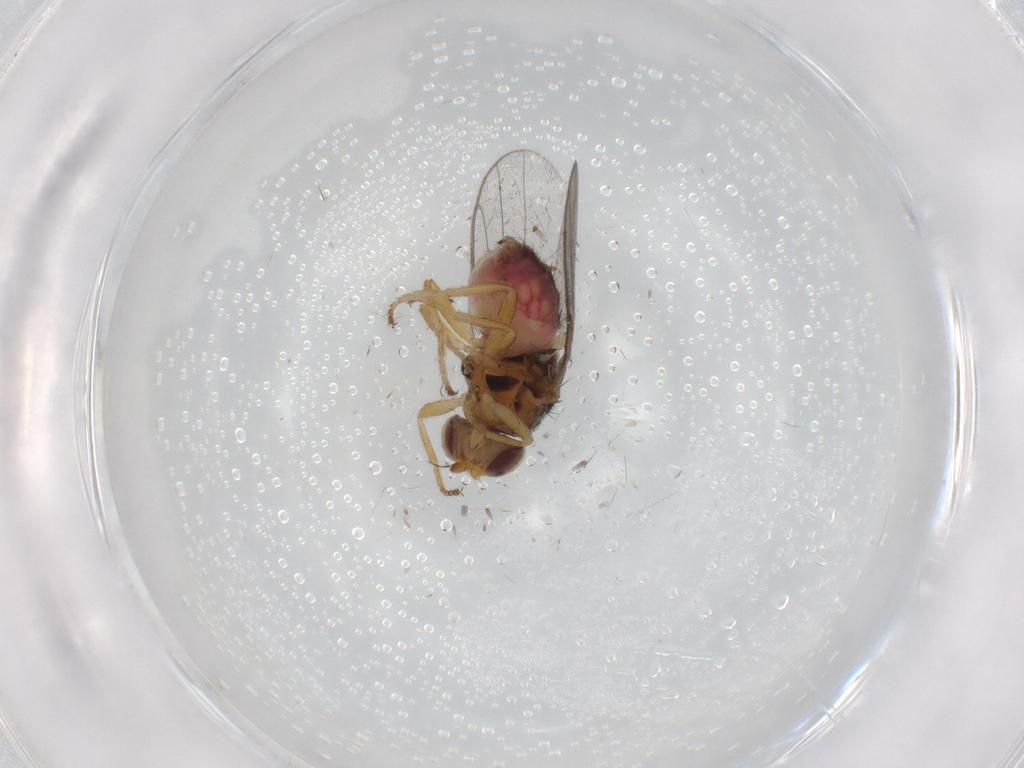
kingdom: Animalia
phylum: Arthropoda
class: Insecta
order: Diptera
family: Chloropidae
